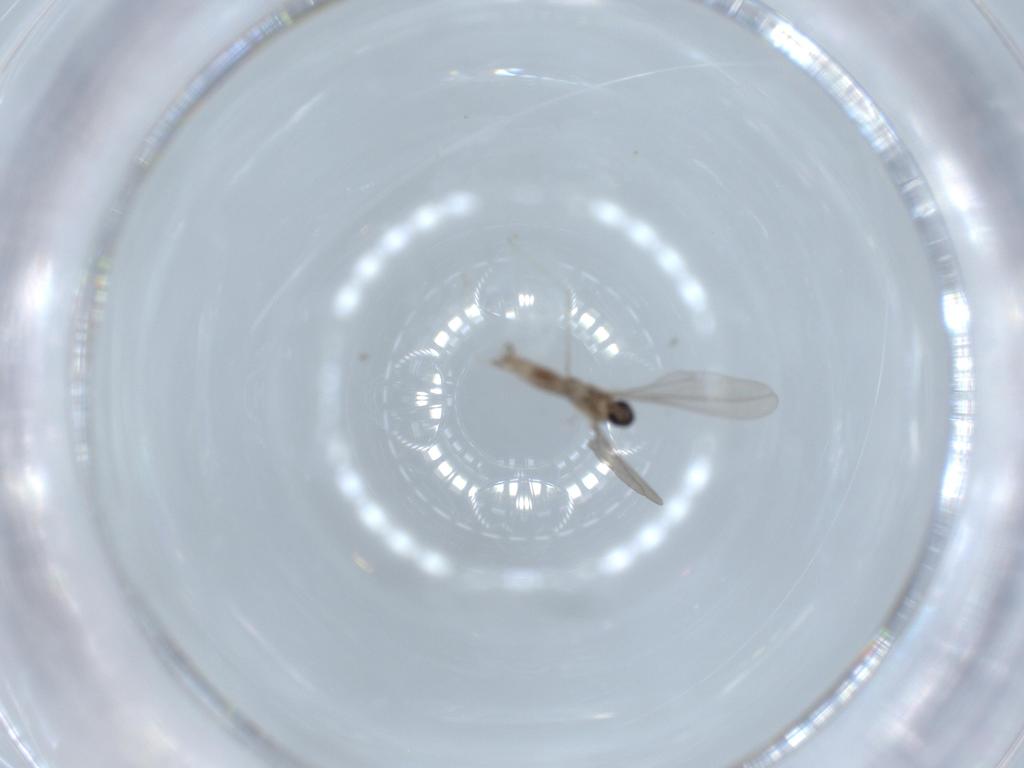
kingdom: Animalia
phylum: Arthropoda
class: Insecta
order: Diptera
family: Cecidomyiidae
